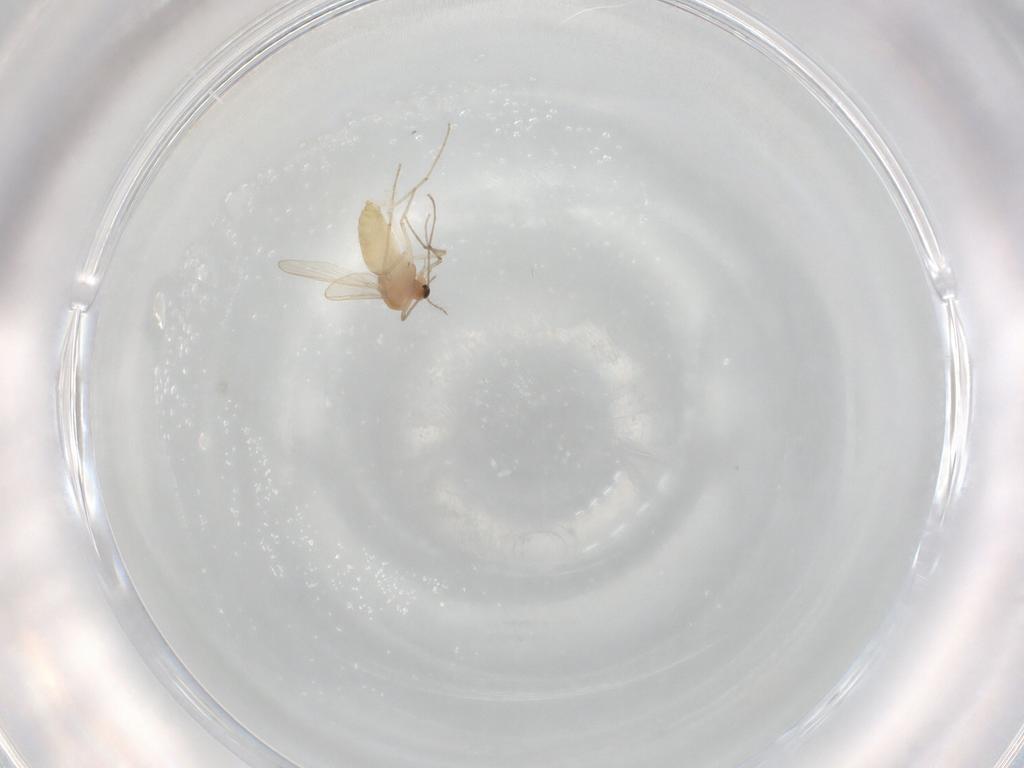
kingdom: Animalia
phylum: Arthropoda
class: Insecta
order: Diptera
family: Chironomidae
